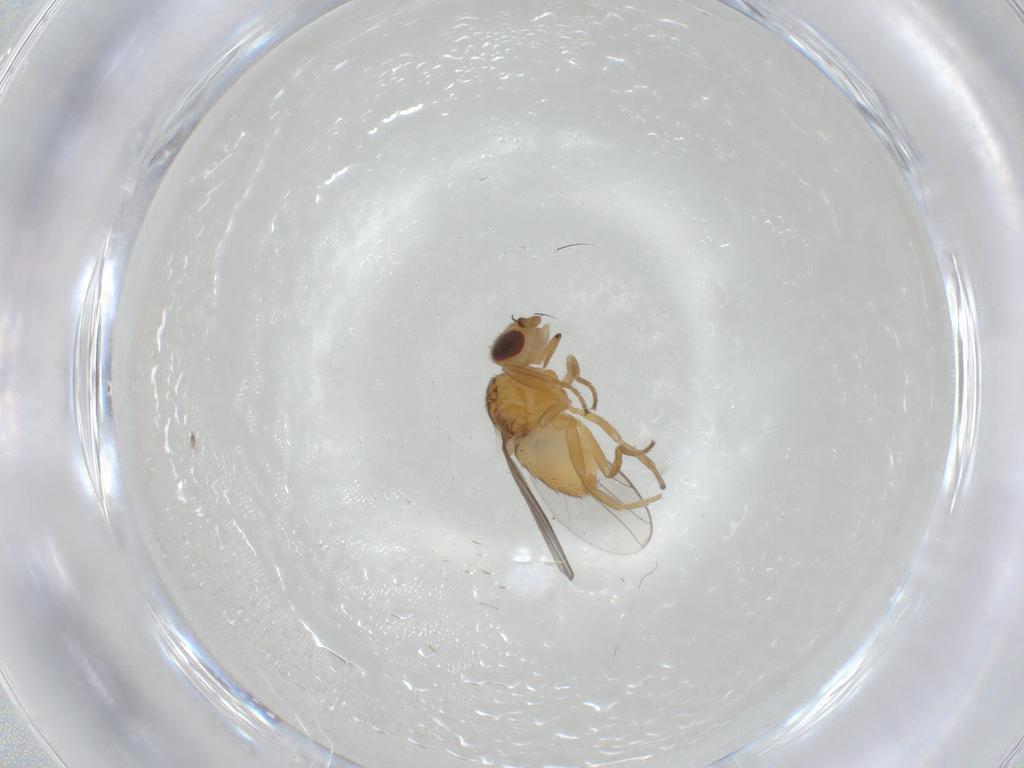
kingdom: Animalia
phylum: Arthropoda
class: Insecta
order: Diptera
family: Chloropidae
